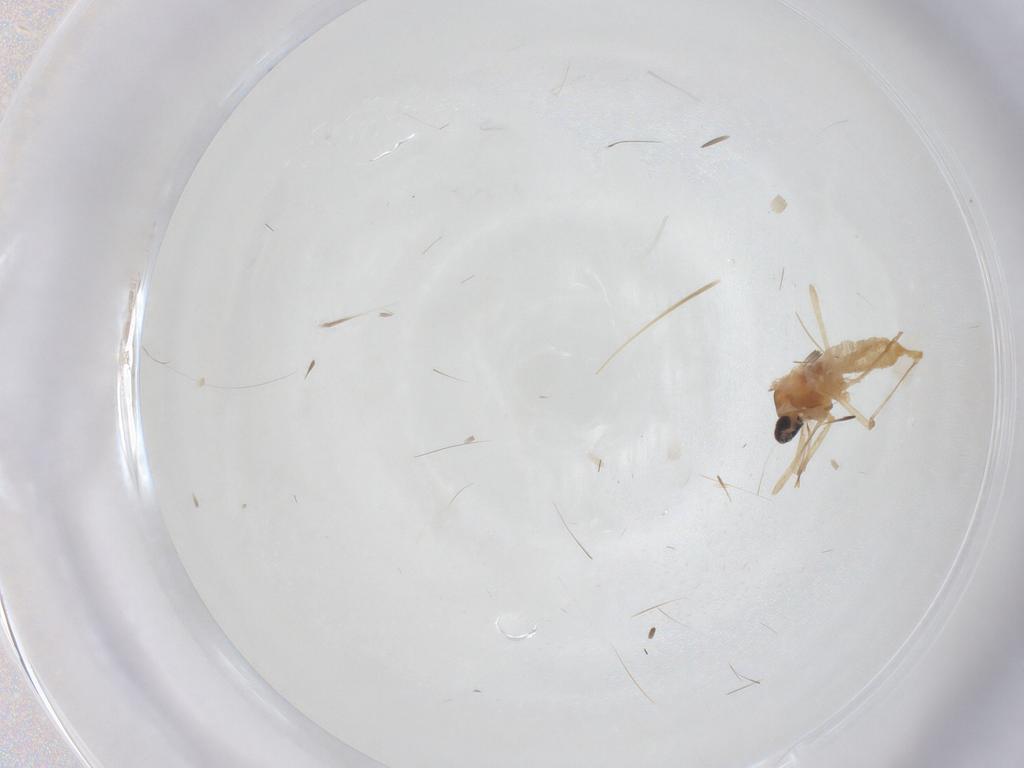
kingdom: Animalia
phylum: Arthropoda
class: Insecta
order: Diptera
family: Cecidomyiidae
